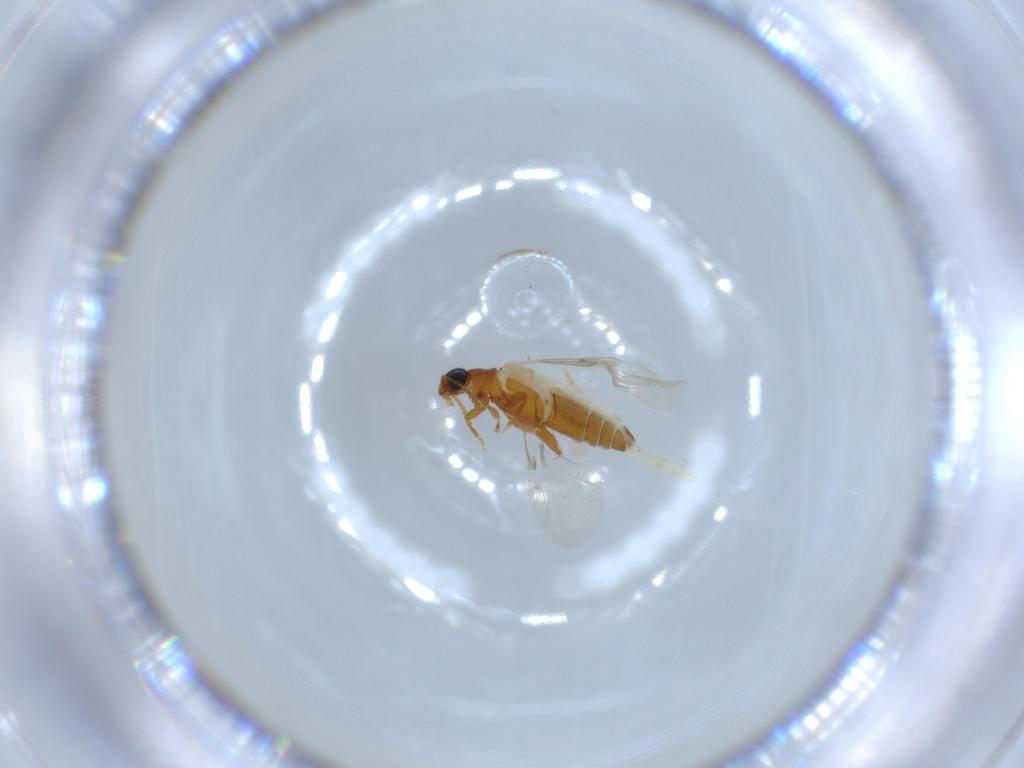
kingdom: Animalia
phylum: Arthropoda
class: Insecta
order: Coleoptera
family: Aderidae
